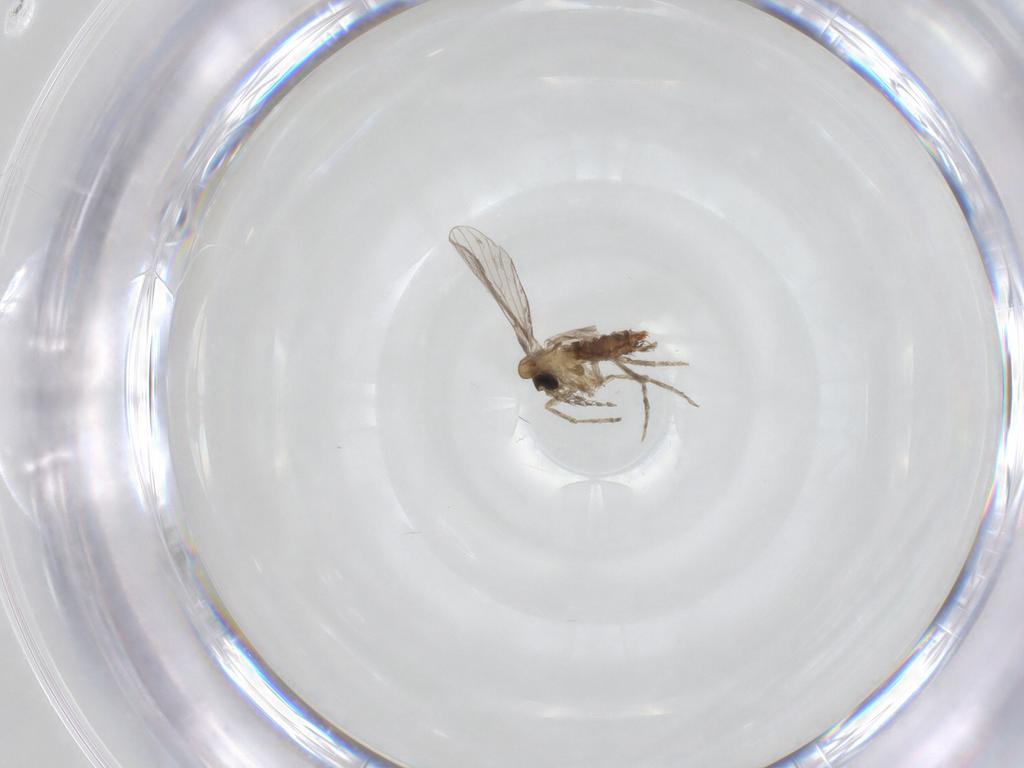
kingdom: Animalia
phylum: Arthropoda
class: Insecta
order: Diptera
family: Psychodidae
